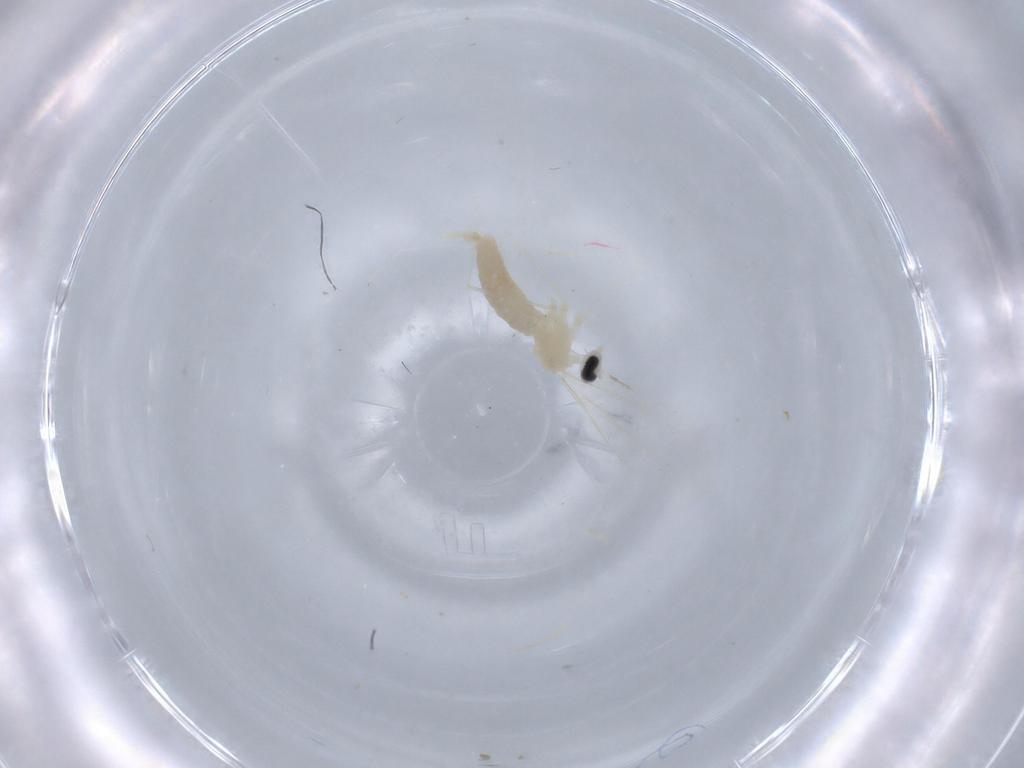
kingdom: Animalia
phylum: Arthropoda
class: Insecta
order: Diptera
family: Cecidomyiidae
